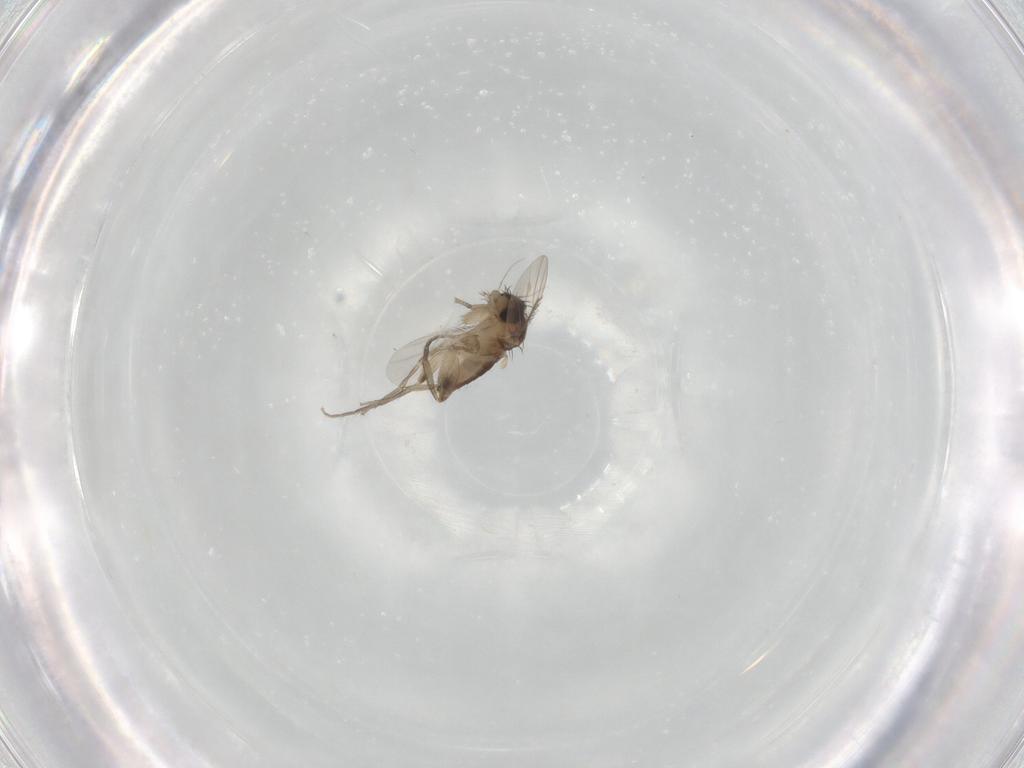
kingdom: Animalia
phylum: Arthropoda
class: Insecta
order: Diptera
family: Phoridae
